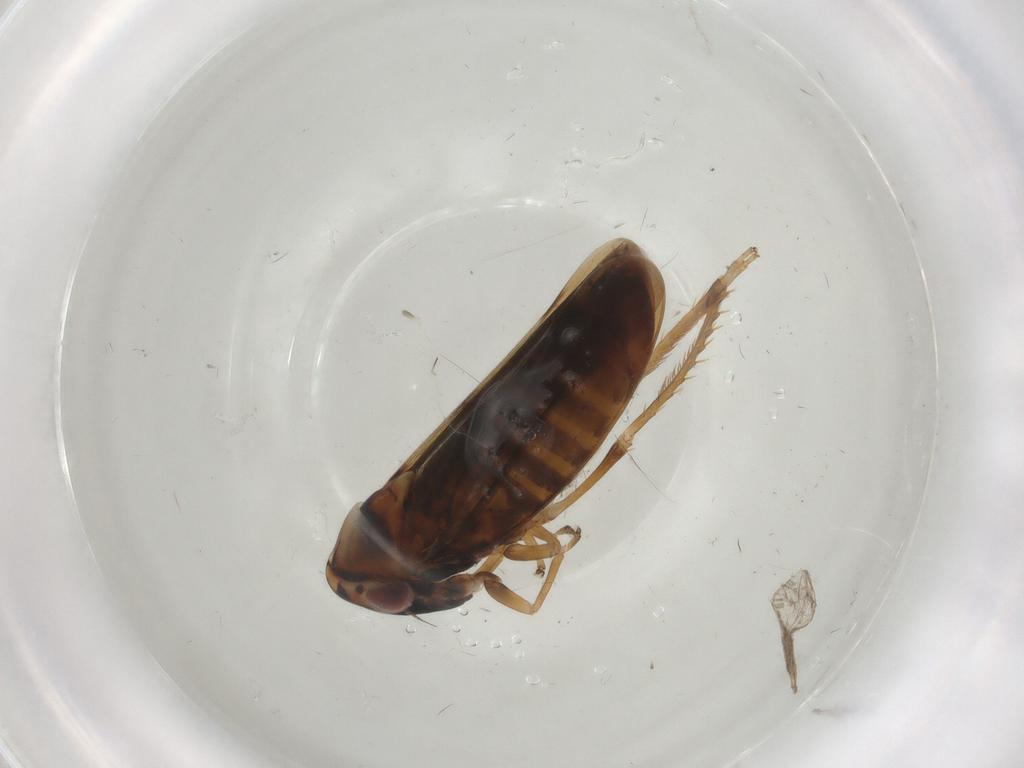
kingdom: Animalia
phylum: Arthropoda
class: Insecta
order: Hemiptera
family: Cicadellidae
